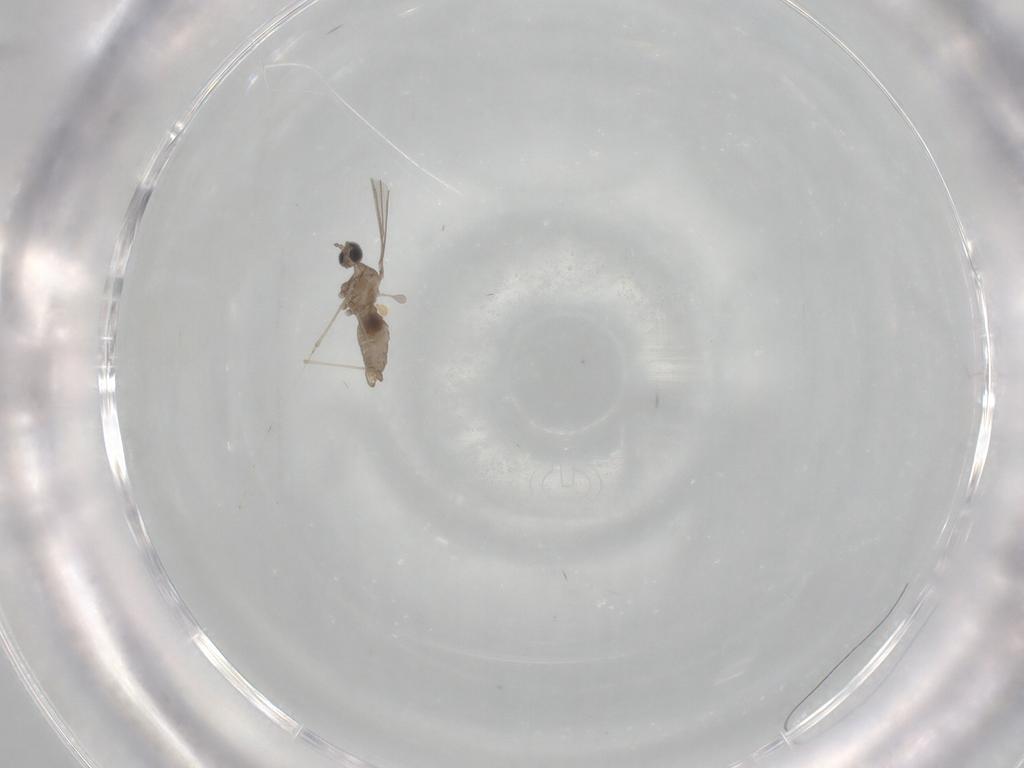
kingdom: Animalia
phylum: Arthropoda
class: Insecta
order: Diptera
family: Cecidomyiidae
